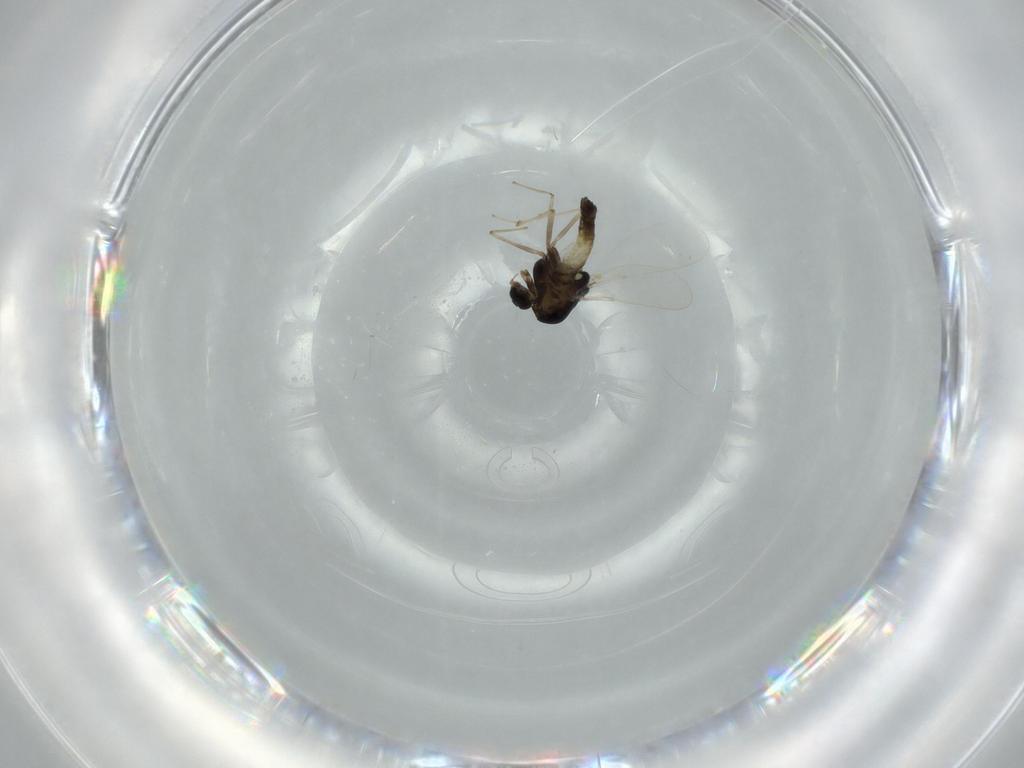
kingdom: Animalia
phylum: Arthropoda
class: Insecta
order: Diptera
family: Chironomidae
